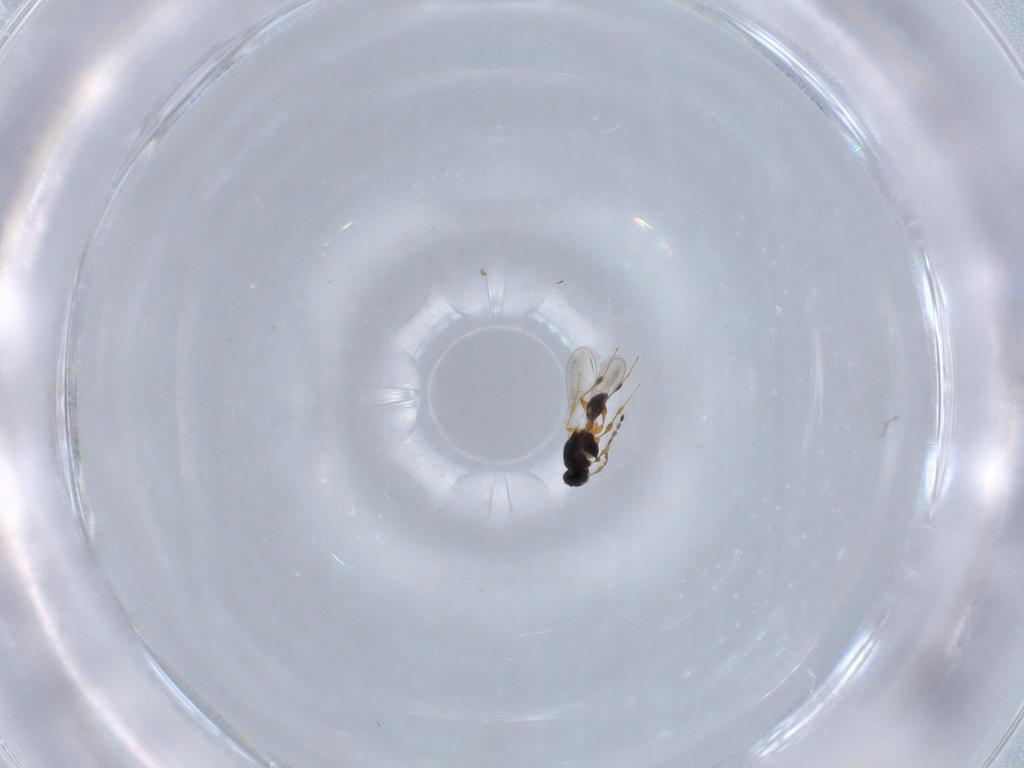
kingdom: Animalia
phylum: Arthropoda
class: Insecta
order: Hymenoptera
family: Platygastridae
